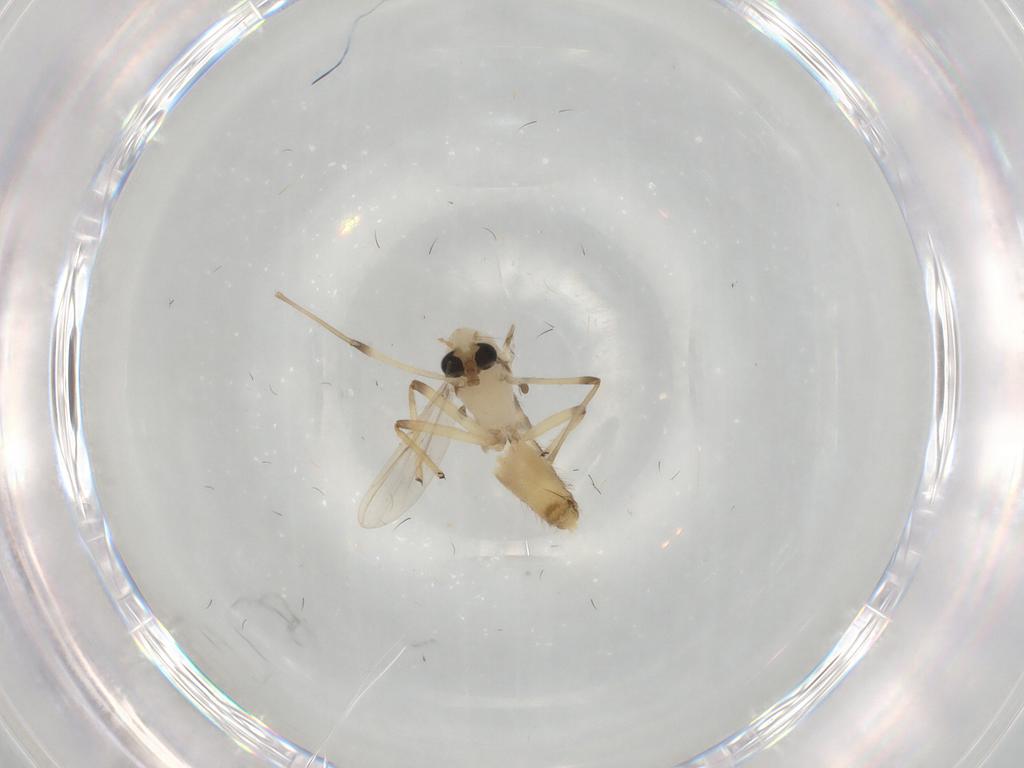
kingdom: Animalia
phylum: Arthropoda
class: Insecta
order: Diptera
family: Chironomidae
